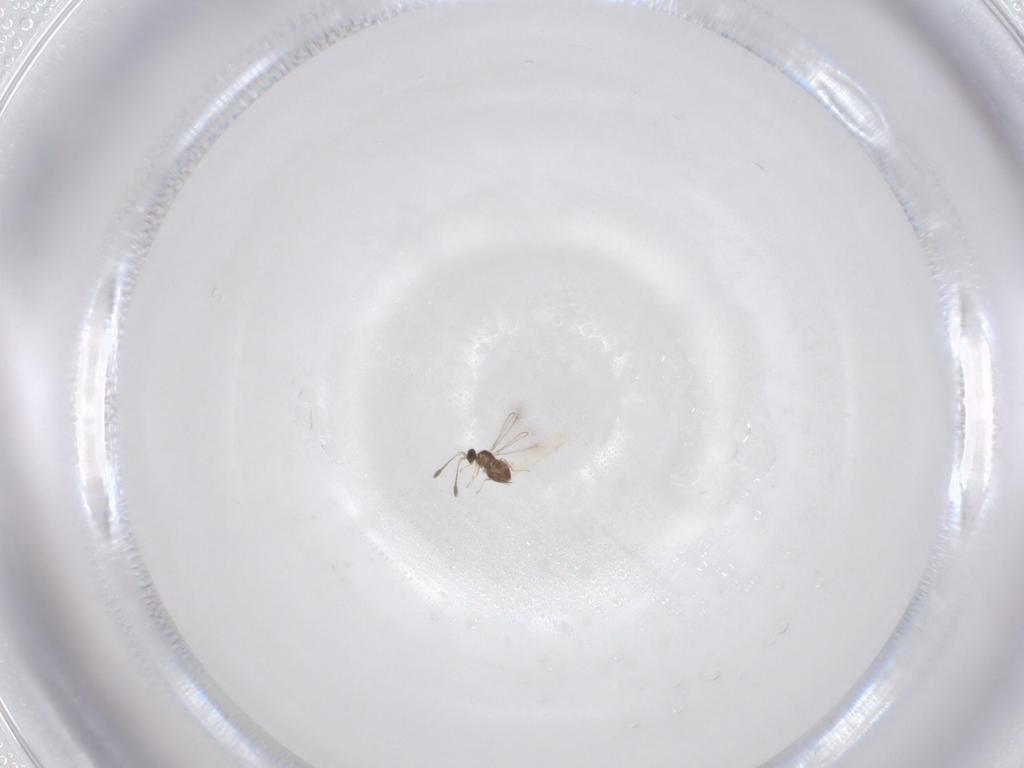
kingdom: Animalia
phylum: Arthropoda
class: Insecta
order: Hymenoptera
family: Mymaridae
